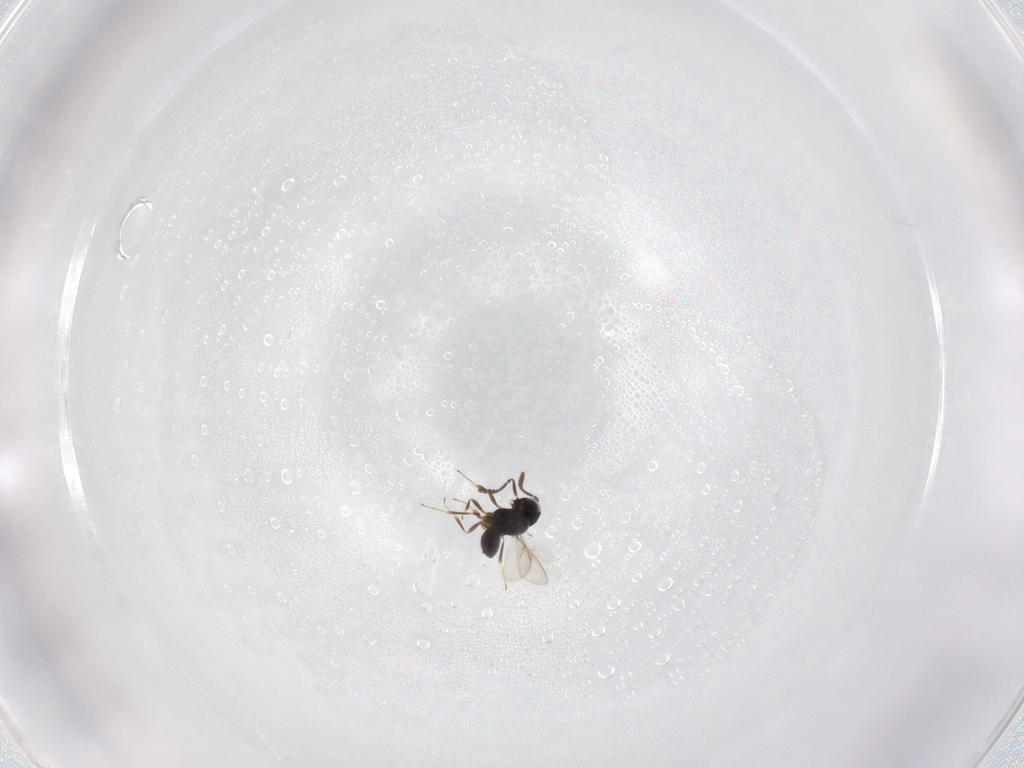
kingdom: Animalia
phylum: Arthropoda
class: Insecta
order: Hymenoptera
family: Scelionidae
